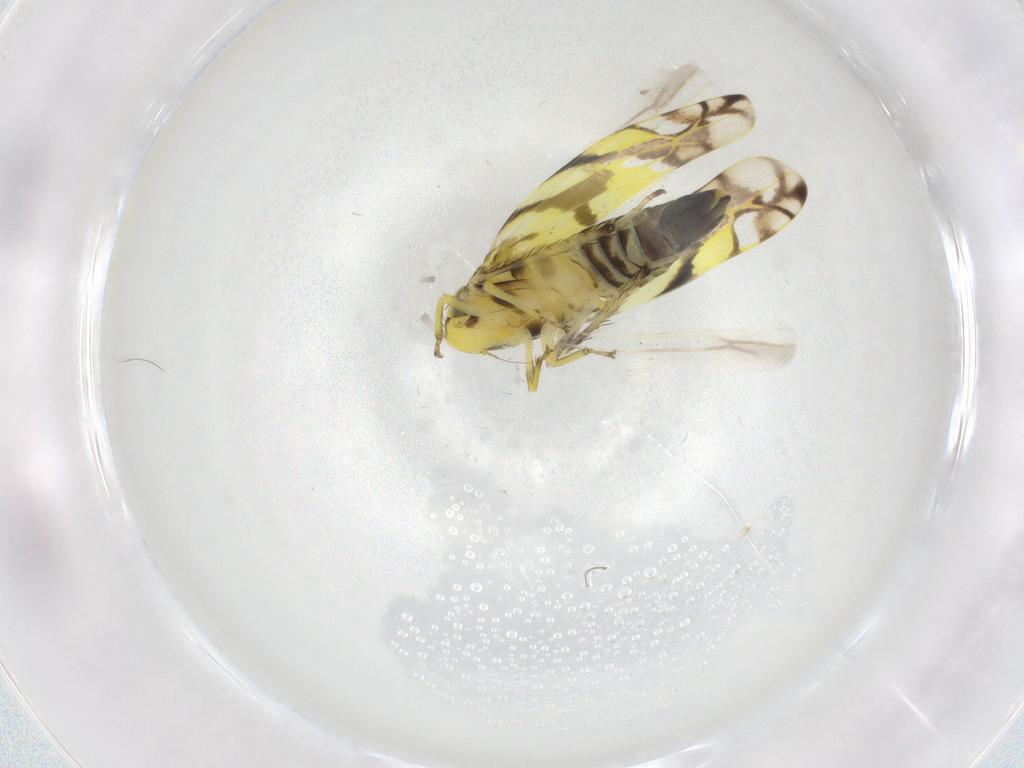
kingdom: Animalia
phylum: Arthropoda
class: Insecta
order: Hemiptera
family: Cicadellidae
